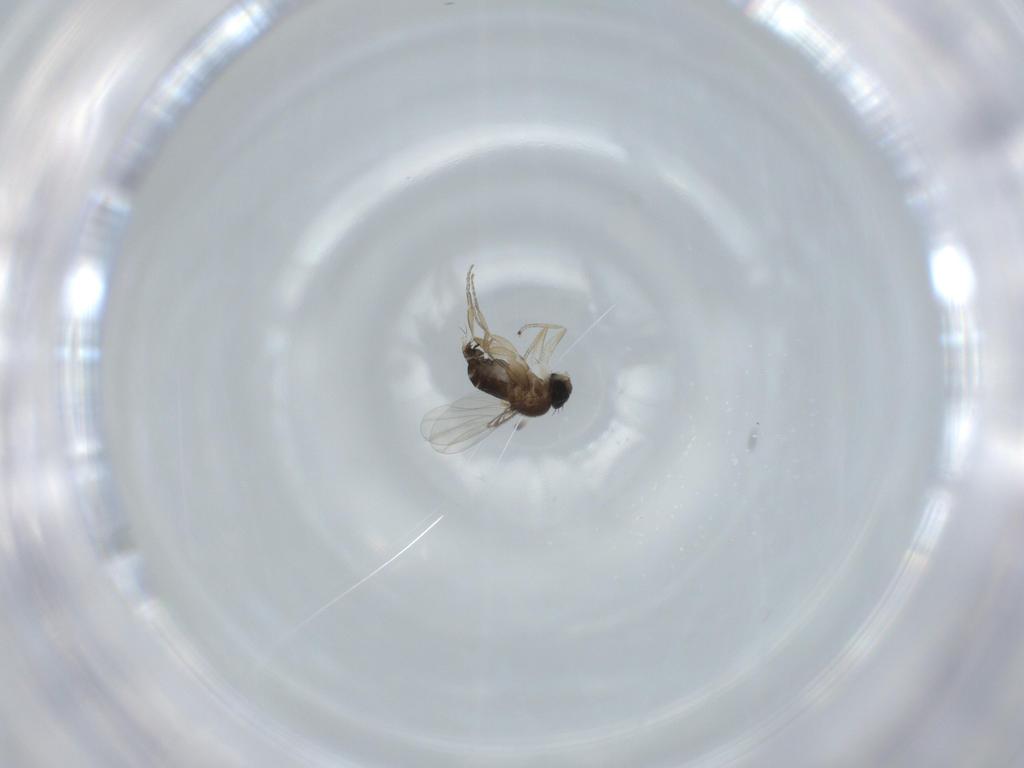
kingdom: Animalia
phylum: Arthropoda
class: Insecta
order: Diptera
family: Phoridae
